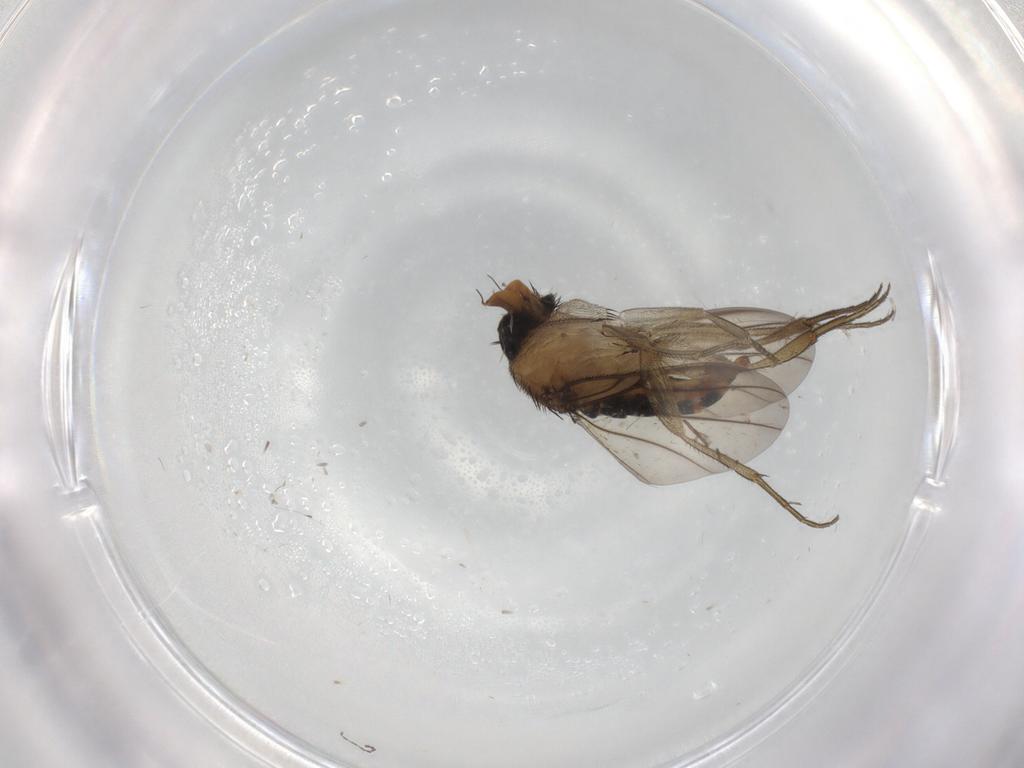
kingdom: Animalia
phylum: Arthropoda
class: Insecta
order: Diptera
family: Phoridae
